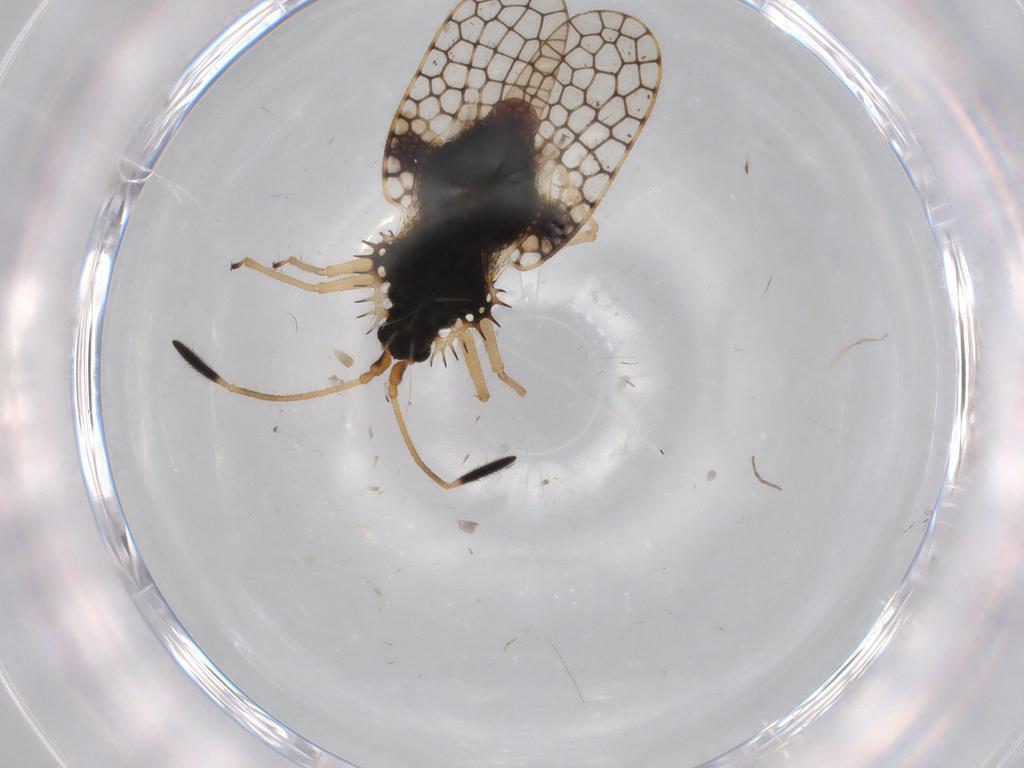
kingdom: Animalia
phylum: Arthropoda
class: Insecta
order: Hemiptera
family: Tingidae
